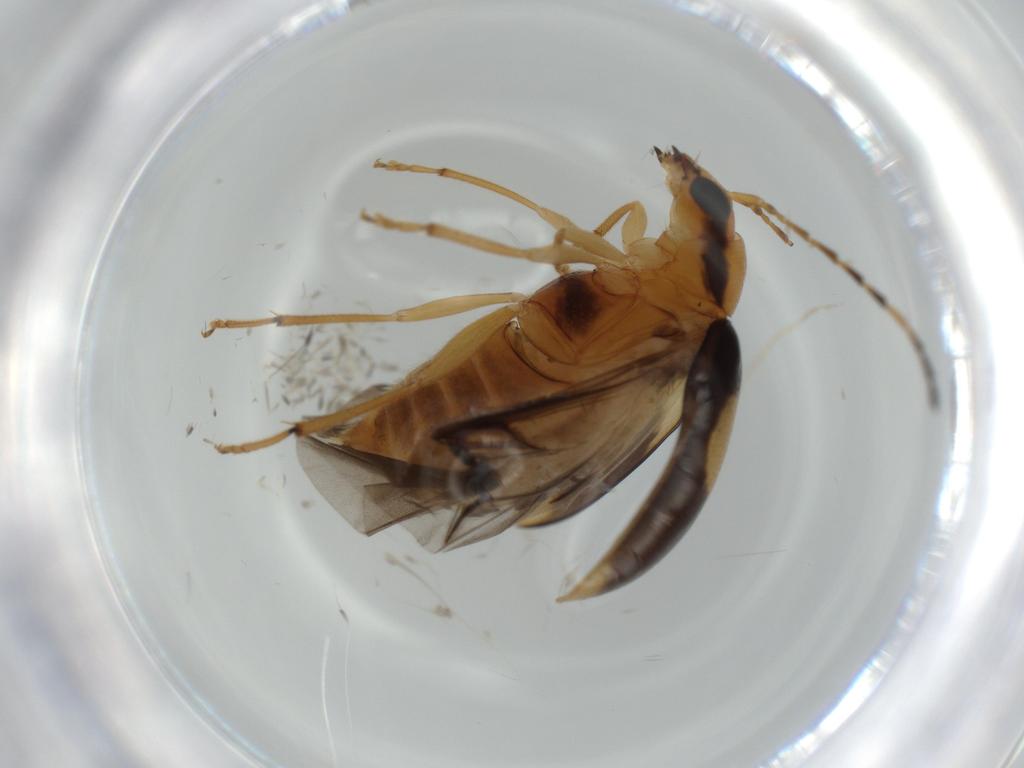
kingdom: Animalia
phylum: Arthropoda
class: Insecta
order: Coleoptera
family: Chrysomelidae
